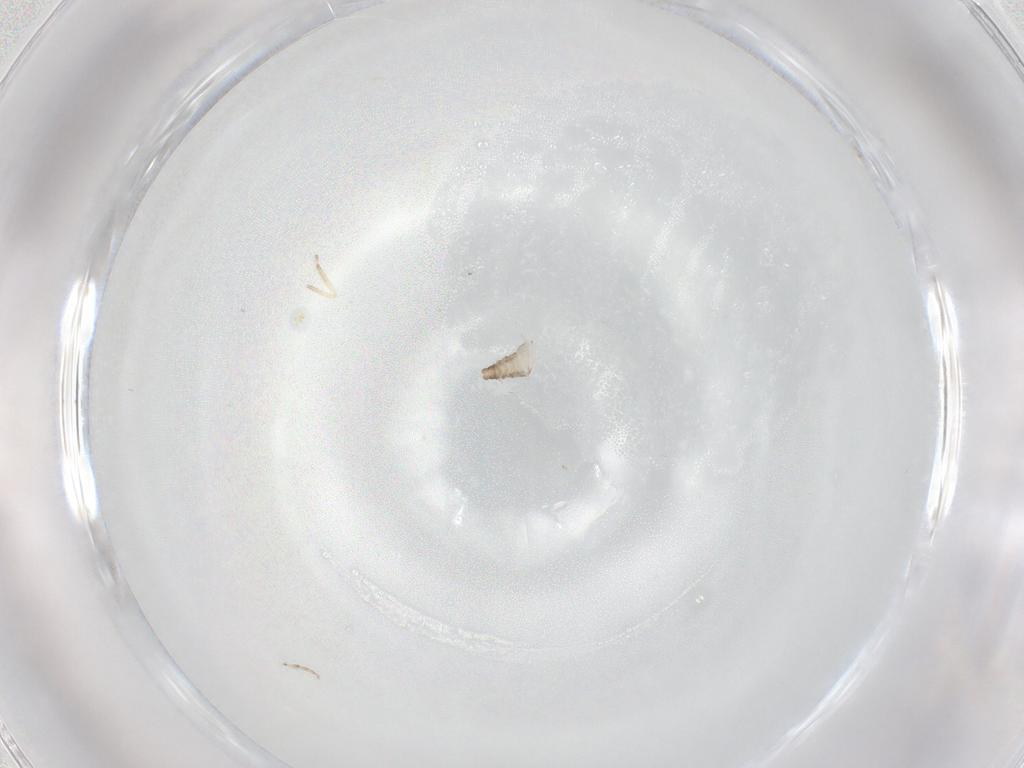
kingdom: Animalia
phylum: Arthropoda
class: Insecta
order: Diptera
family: Ceratopogonidae
